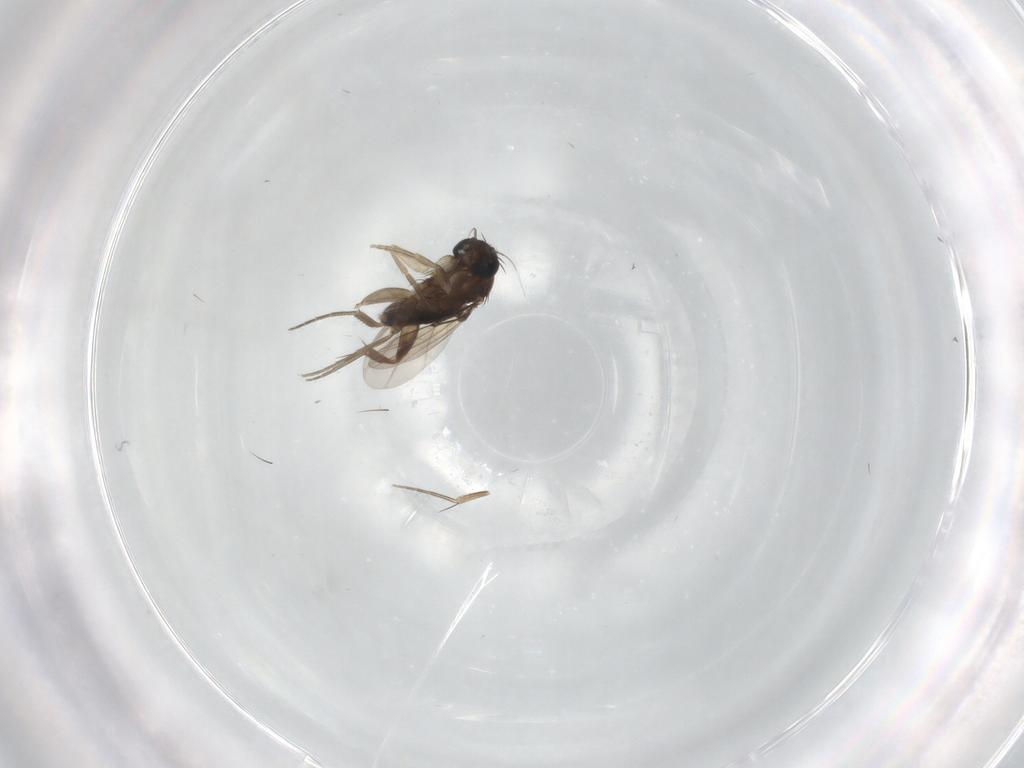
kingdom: Animalia
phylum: Arthropoda
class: Insecta
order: Diptera
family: Phoridae
